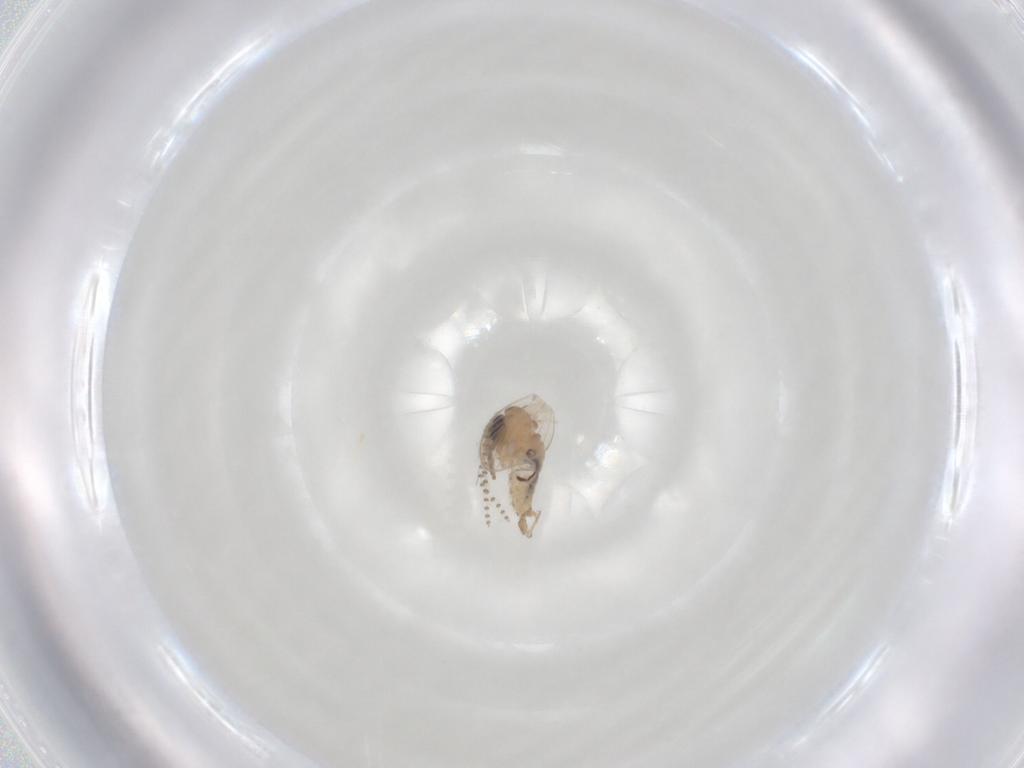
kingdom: Animalia
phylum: Arthropoda
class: Insecta
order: Diptera
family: Psychodidae
